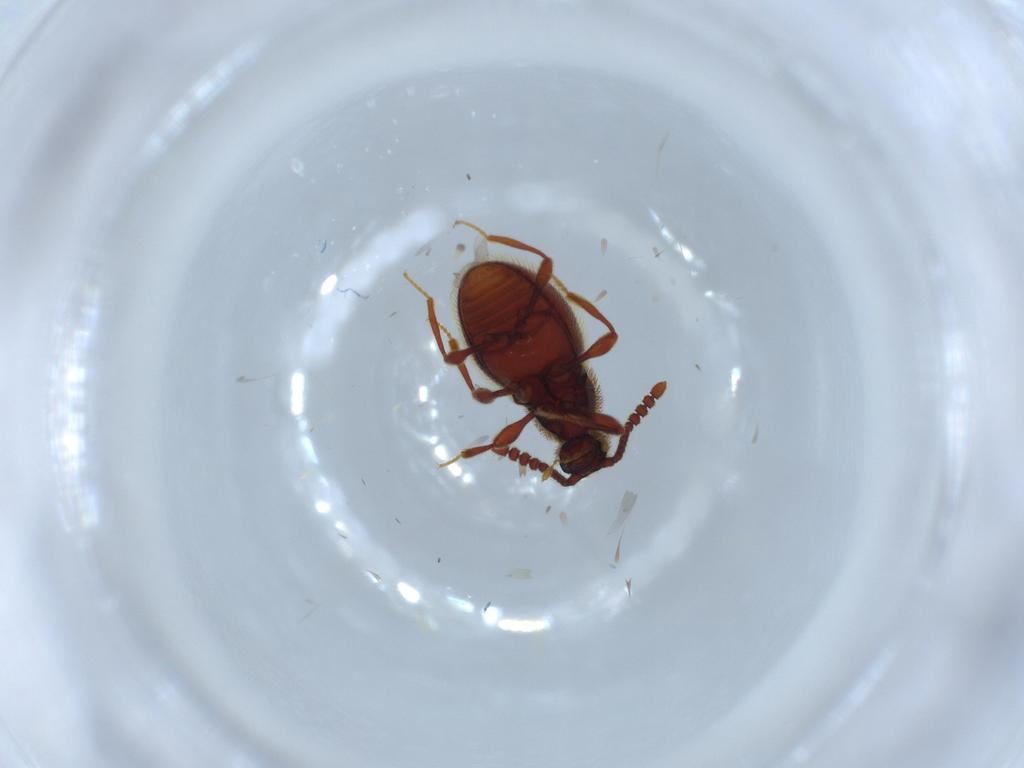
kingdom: Animalia
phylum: Arthropoda
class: Insecta
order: Coleoptera
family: Staphylinidae
